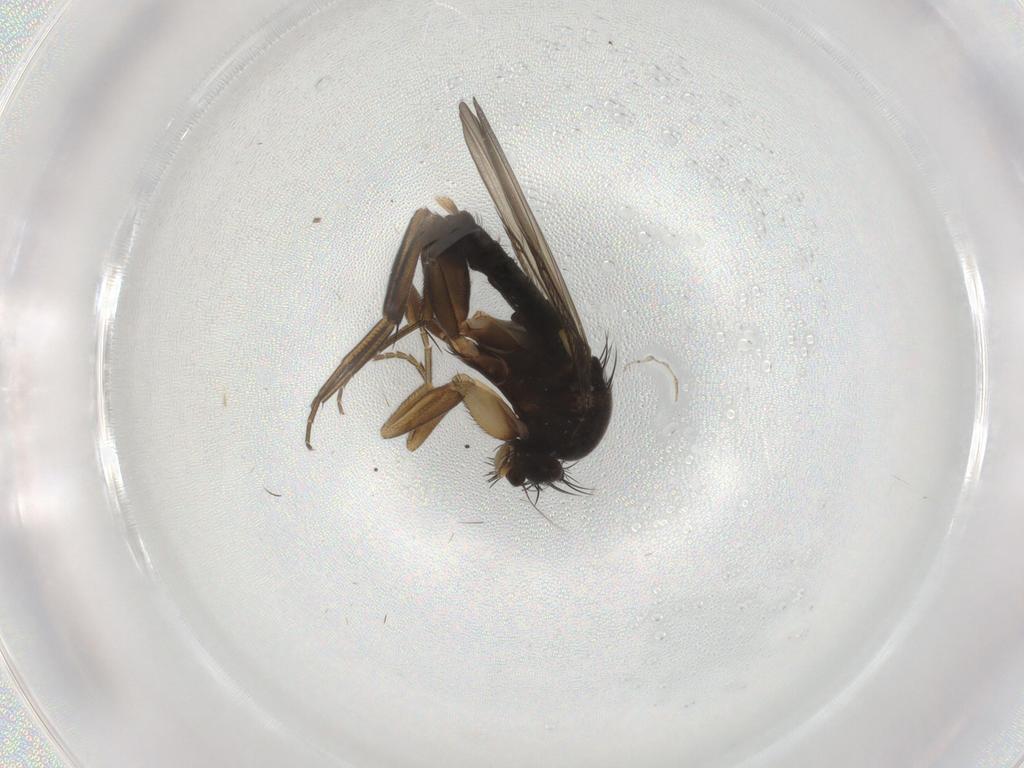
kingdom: Animalia
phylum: Arthropoda
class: Insecta
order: Diptera
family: Phoridae
